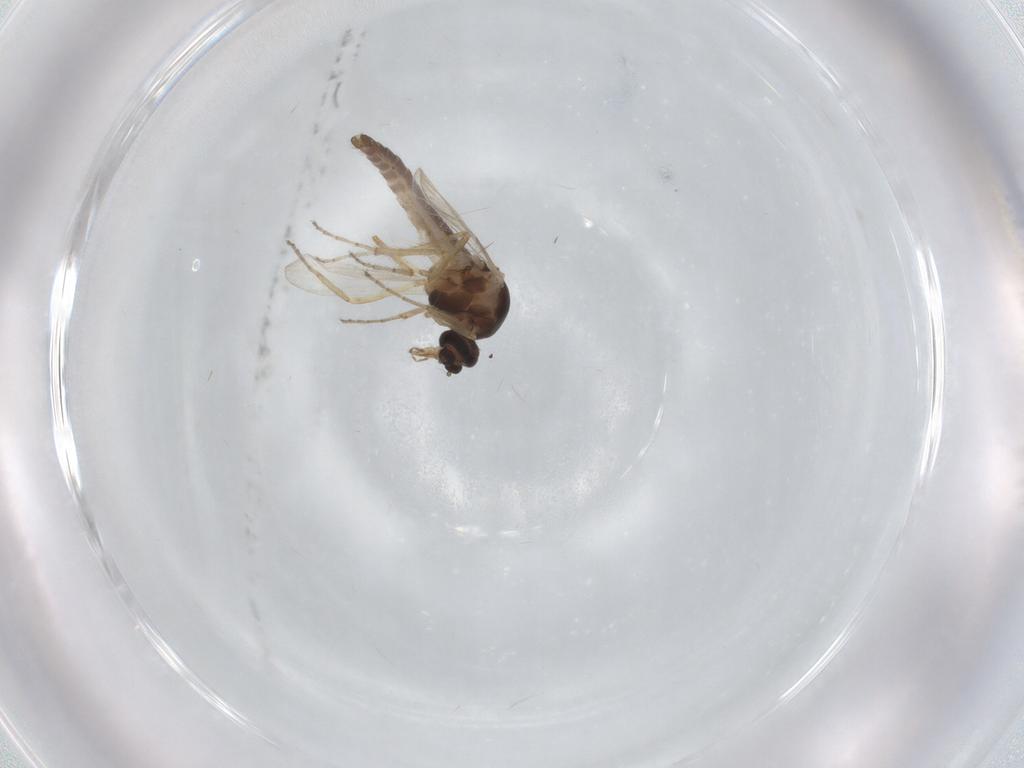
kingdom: Animalia
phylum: Arthropoda
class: Insecta
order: Diptera
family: Ceratopogonidae
